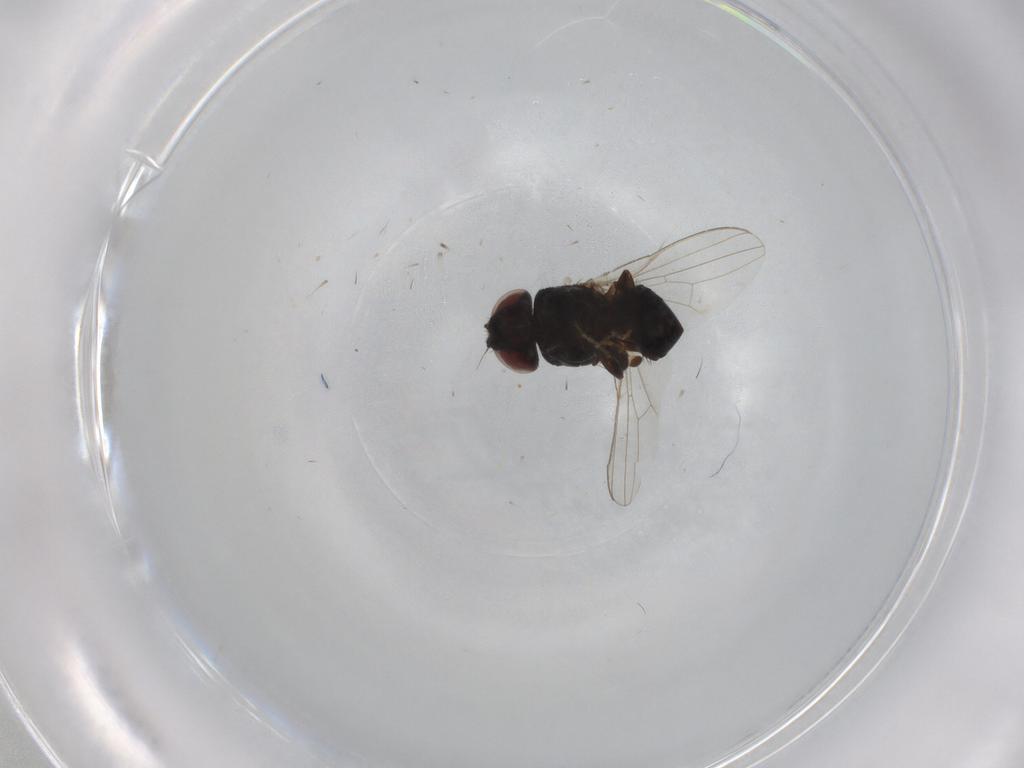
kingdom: Animalia
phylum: Arthropoda
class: Insecta
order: Diptera
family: Milichiidae
